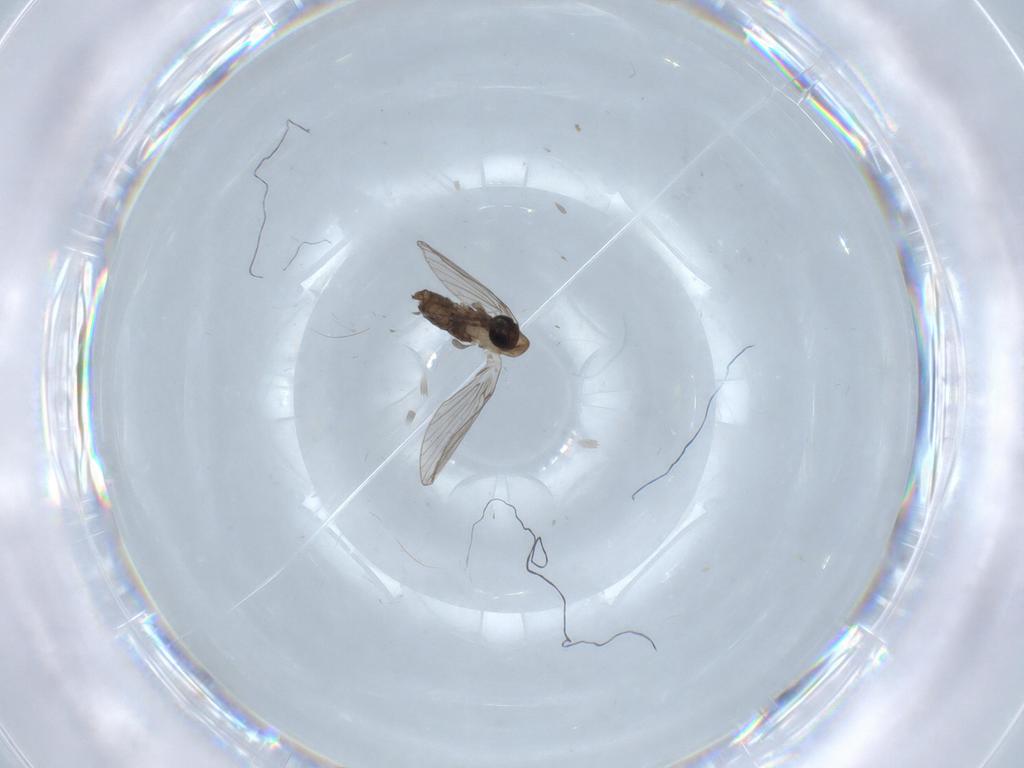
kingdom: Animalia
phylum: Arthropoda
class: Insecta
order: Diptera
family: Psychodidae
